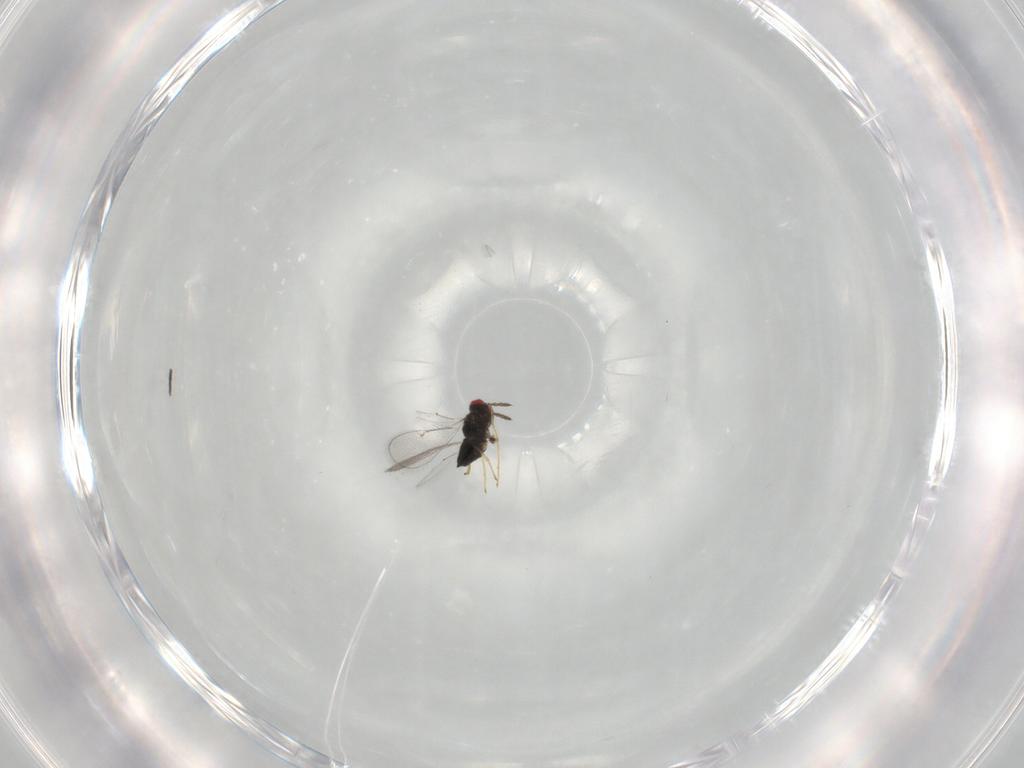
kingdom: Animalia
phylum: Arthropoda
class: Insecta
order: Hymenoptera
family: Eulophidae
